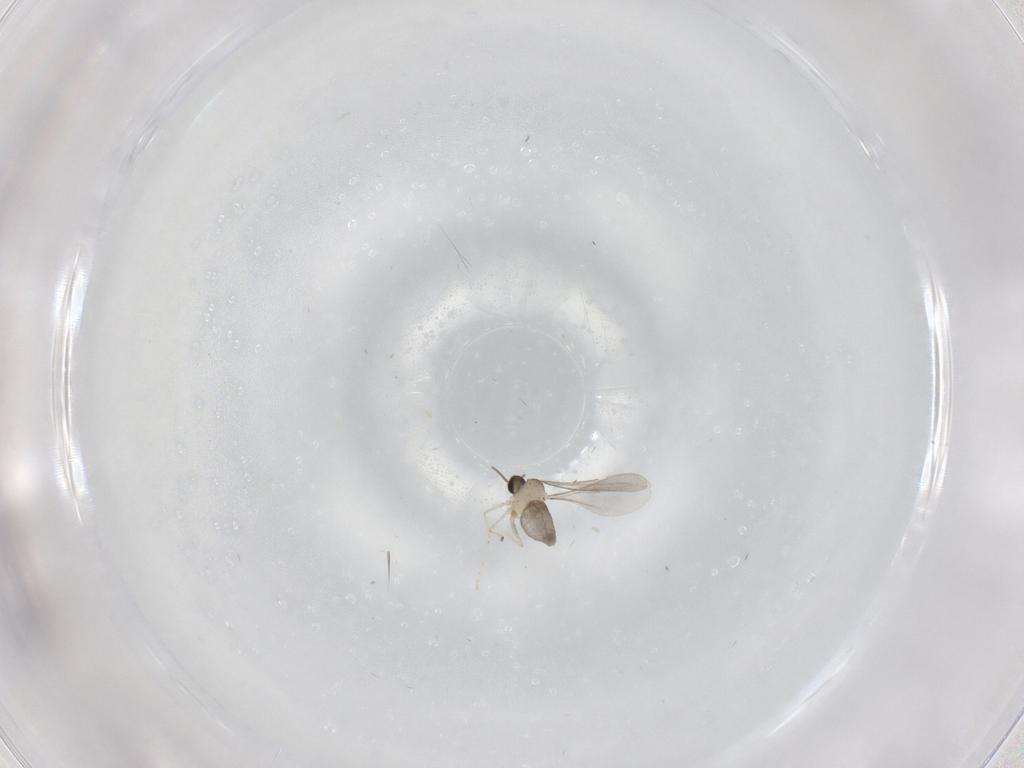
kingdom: Animalia
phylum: Arthropoda
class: Insecta
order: Diptera
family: Cecidomyiidae
